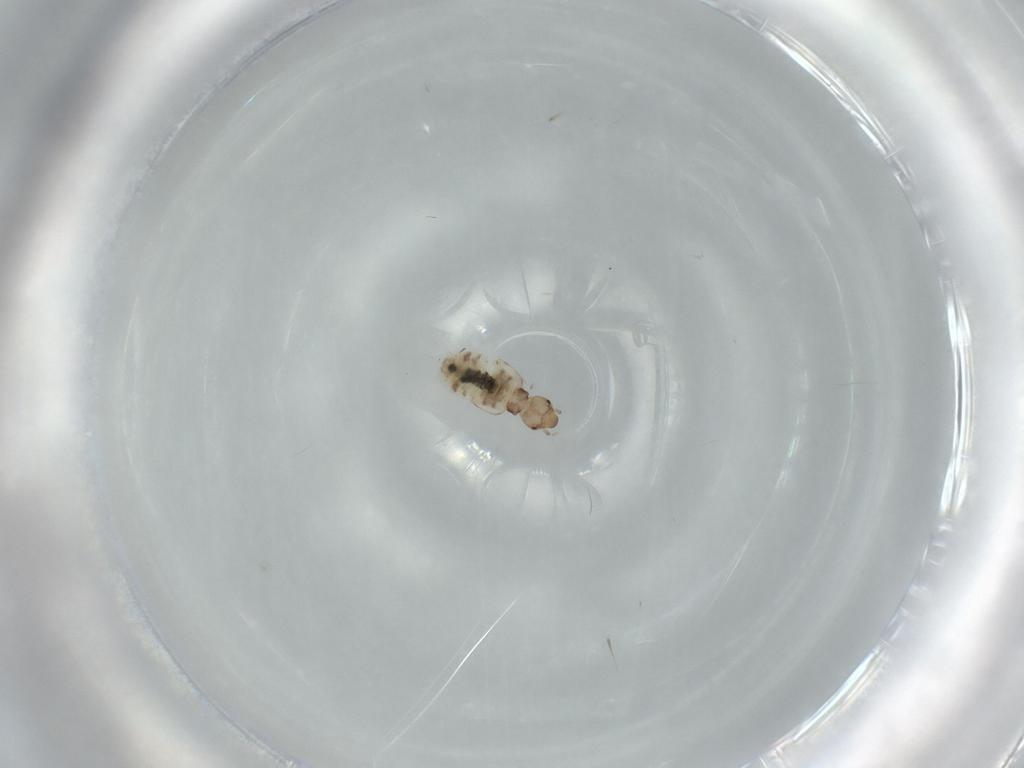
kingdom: Animalia
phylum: Arthropoda
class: Insecta
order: Psocodea
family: Liposcelididae
